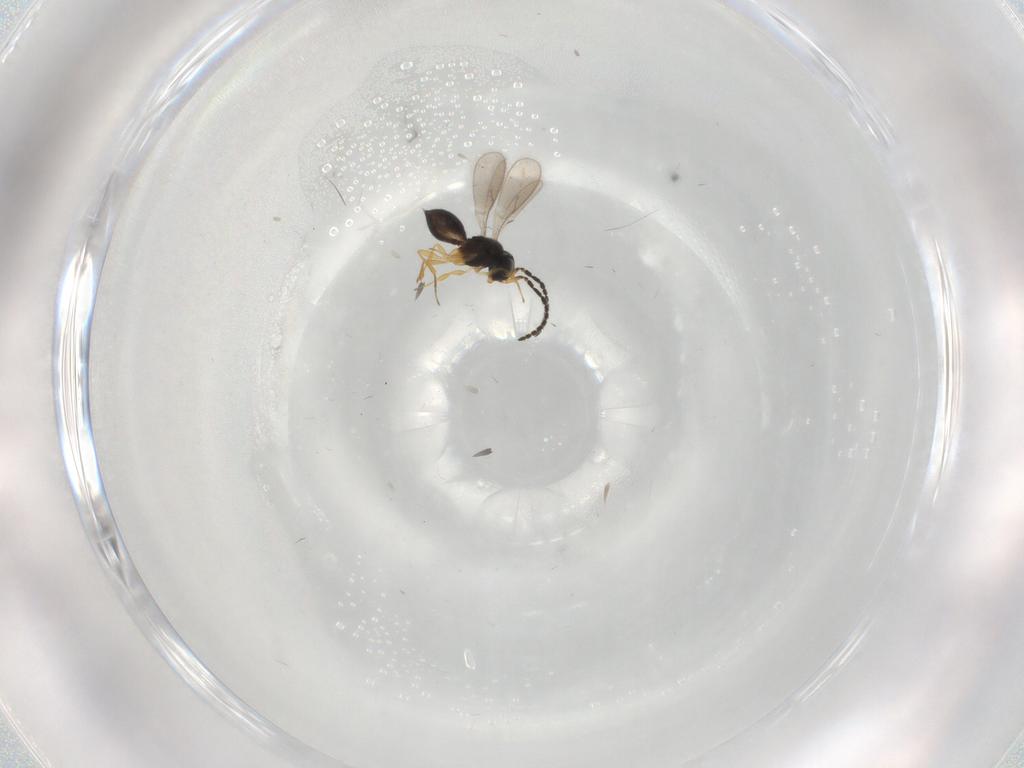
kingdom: Animalia
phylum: Arthropoda
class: Insecta
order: Hymenoptera
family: Scelionidae
